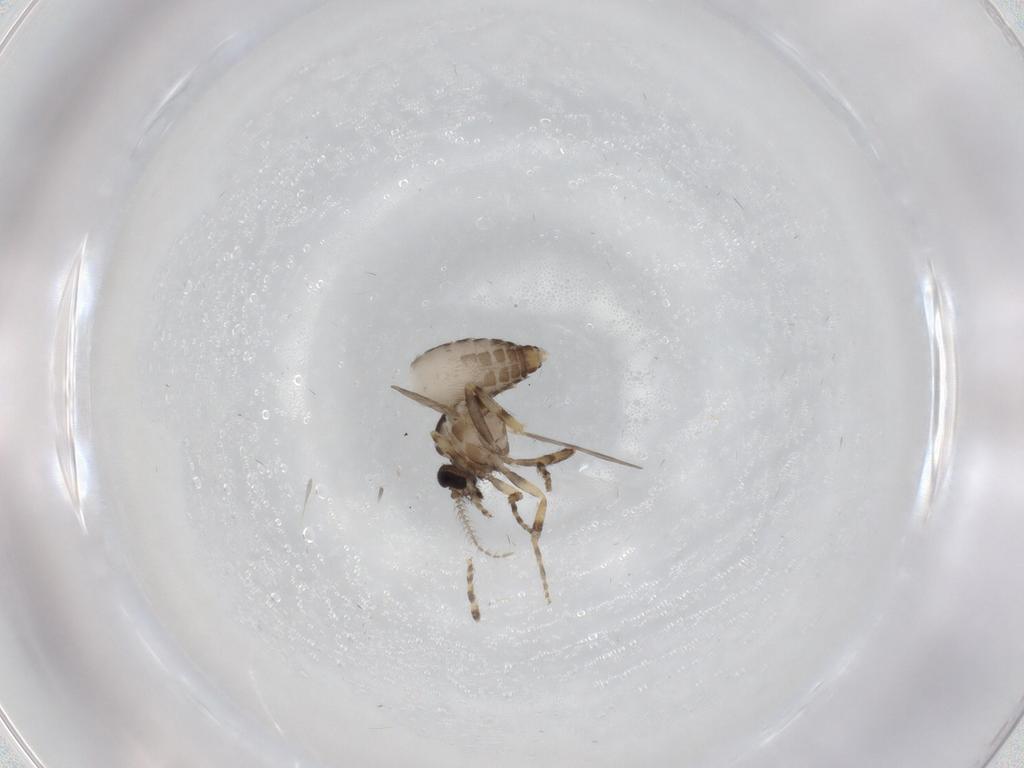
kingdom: Animalia
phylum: Arthropoda
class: Insecta
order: Diptera
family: Ceratopogonidae
